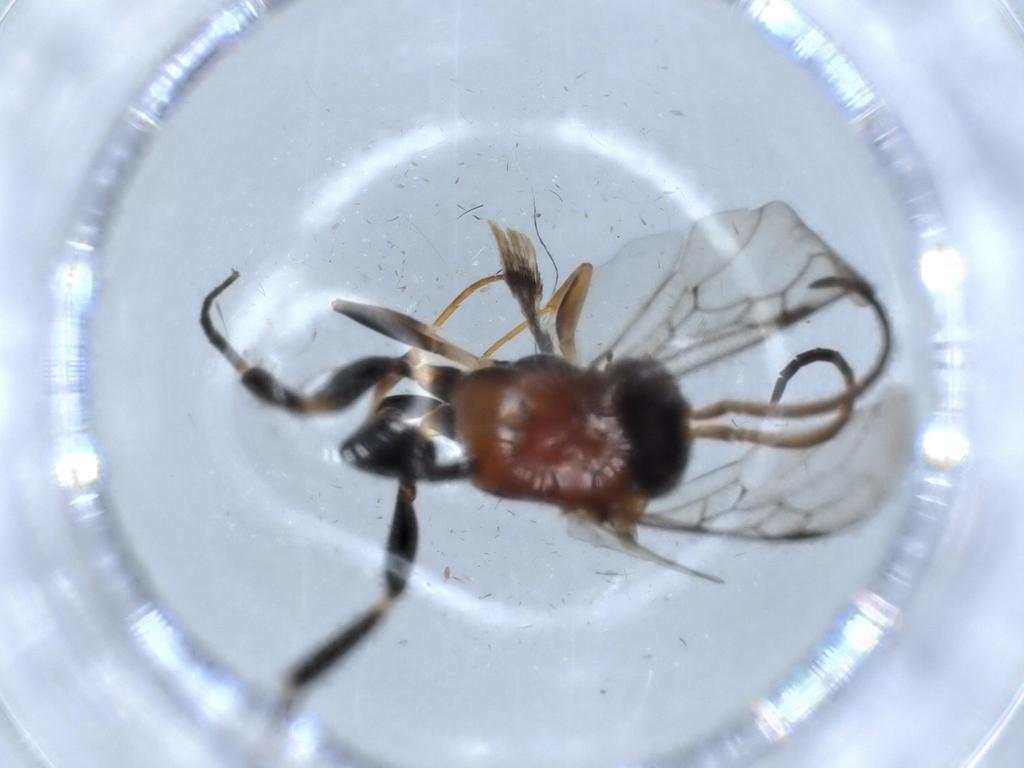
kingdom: Animalia
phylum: Arthropoda
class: Insecta
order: Hymenoptera
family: Evaniidae
